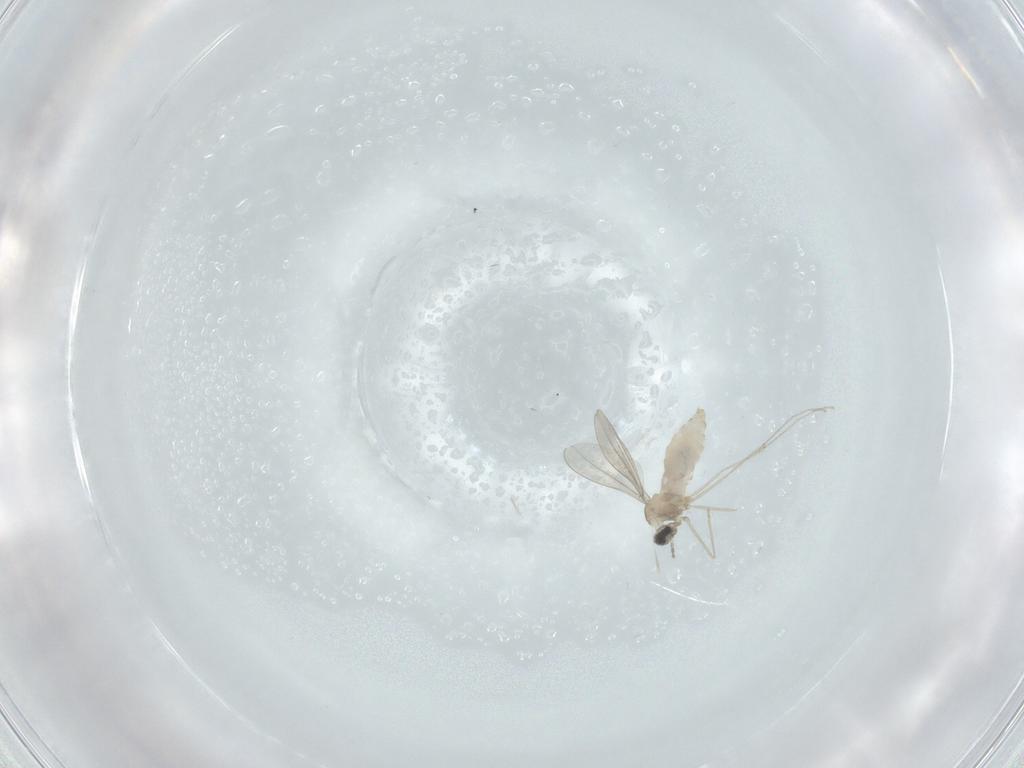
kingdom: Animalia
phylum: Arthropoda
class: Insecta
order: Diptera
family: Cecidomyiidae
